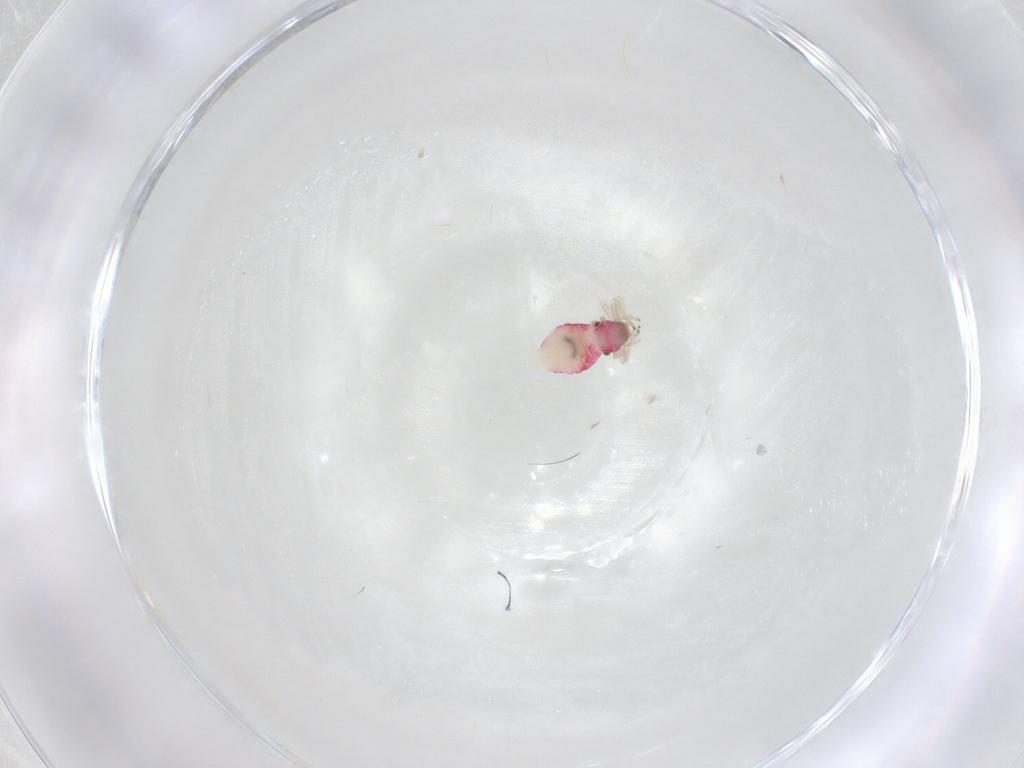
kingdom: Animalia
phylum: Arthropoda
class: Insecta
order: Psocodea
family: Caeciliusidae
